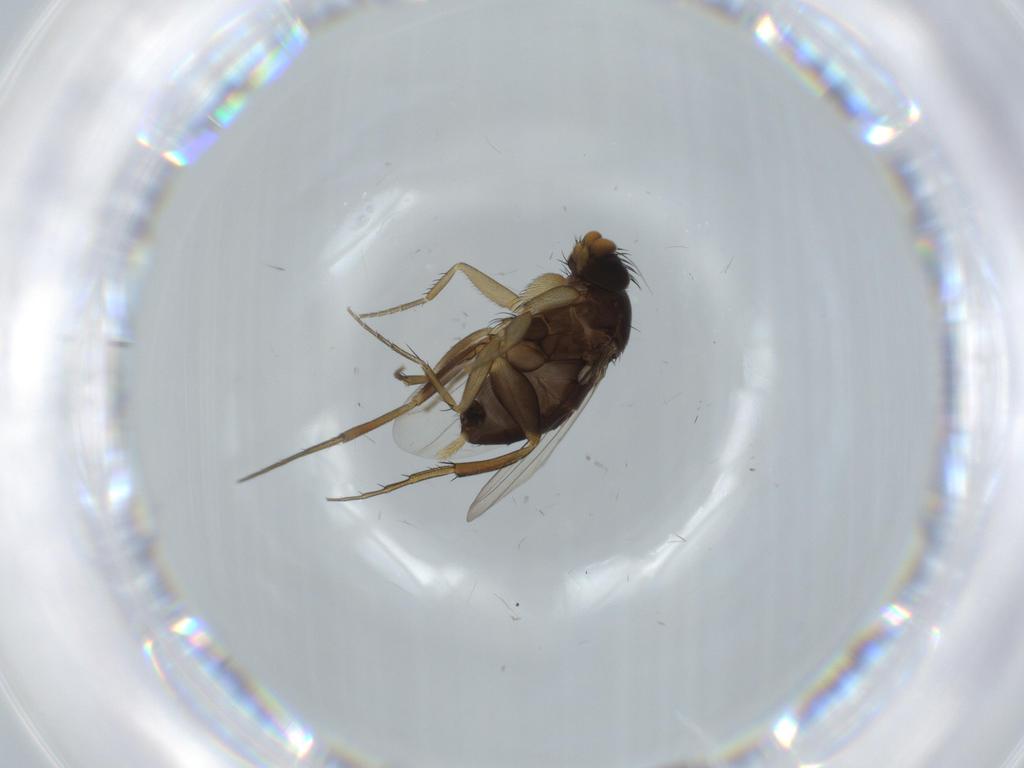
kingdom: Animalia
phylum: Arthropoda
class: Insecta
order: Diptera
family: Phoridae
